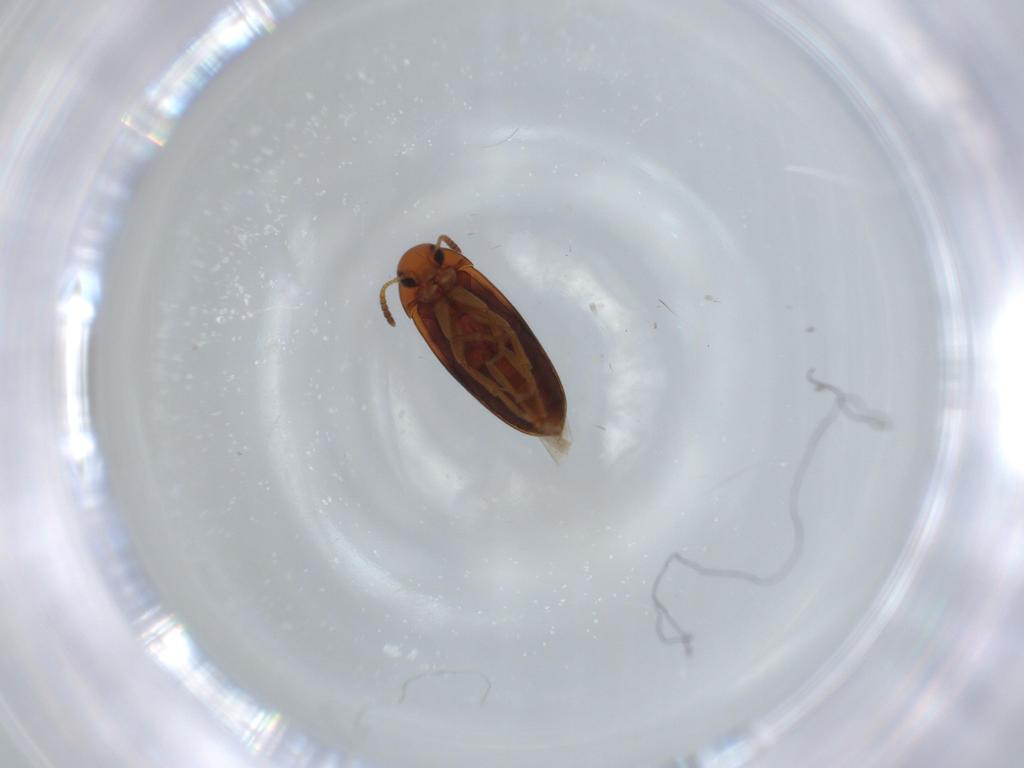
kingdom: Animalia
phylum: Arthropoda
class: Insecta
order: Coleoptera
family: Scraptiidae
